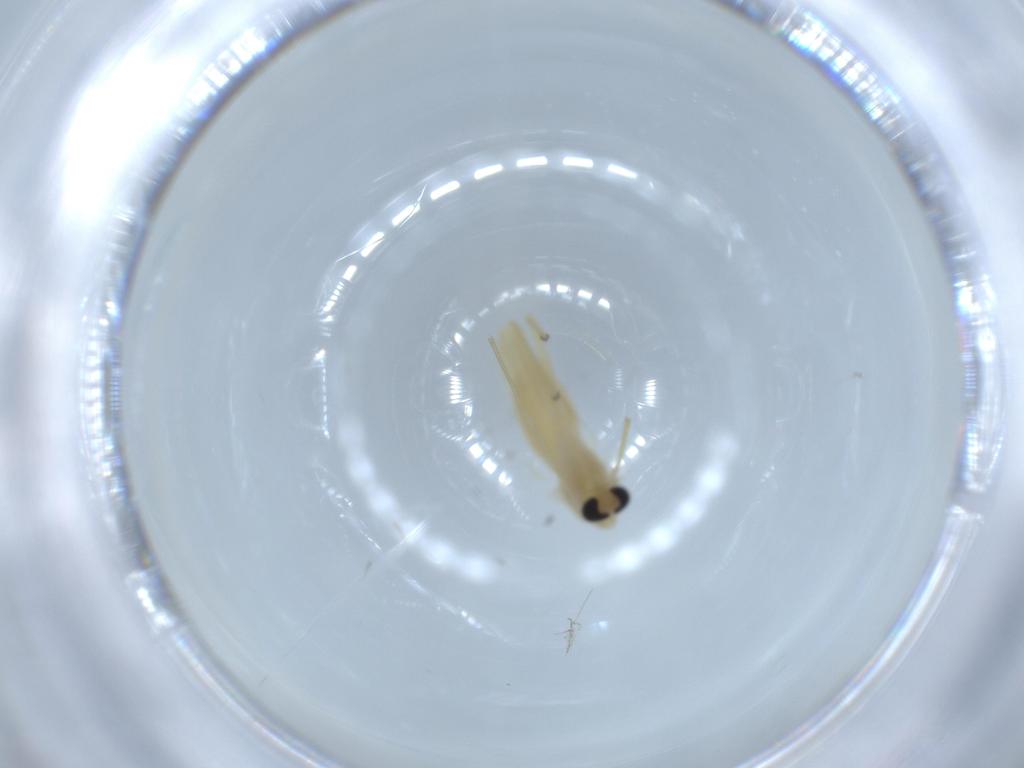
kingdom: Animalia
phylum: Arthropoda
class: Insecta
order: Diptera
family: Chironomidae
